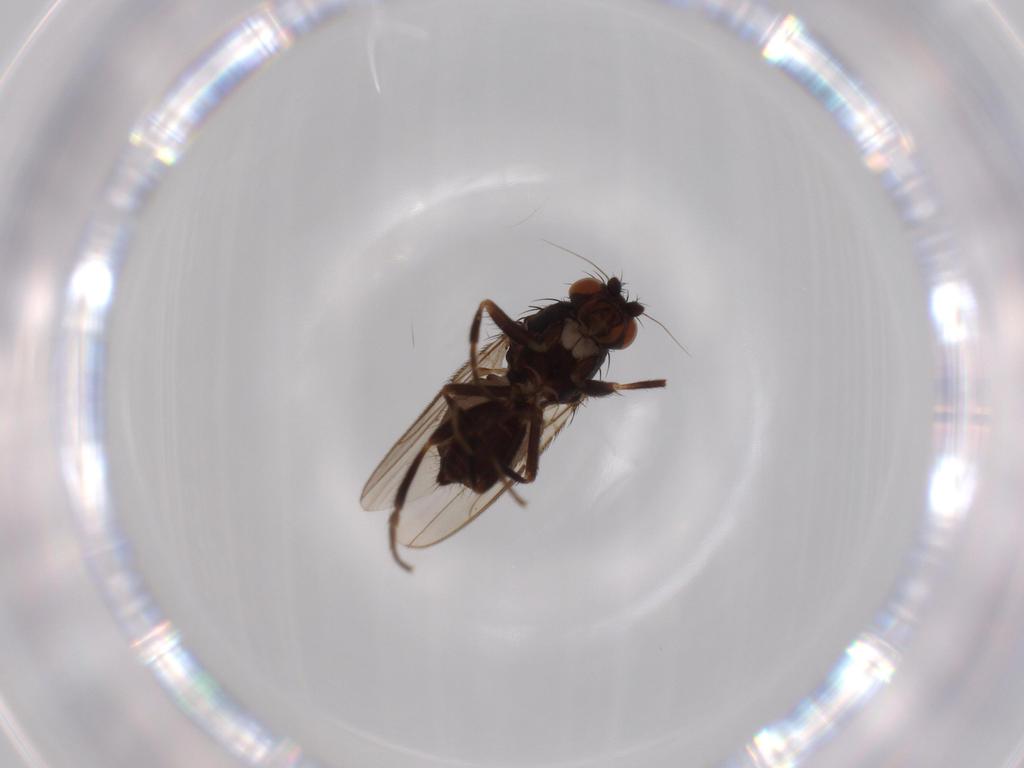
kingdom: Animalia
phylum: Arthropoda
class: Insecta
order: Diptera
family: Sphaeroceridae
